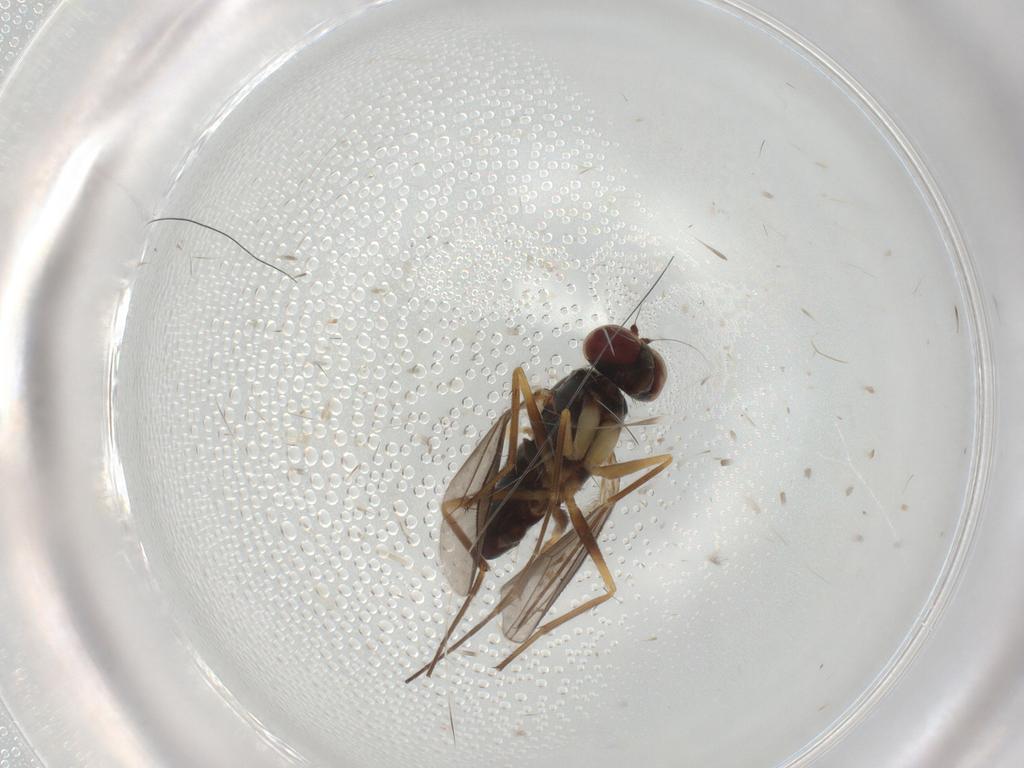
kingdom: Animalia
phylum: Arthropoda
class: Insecta
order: Diptera
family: Dolichopodidae
